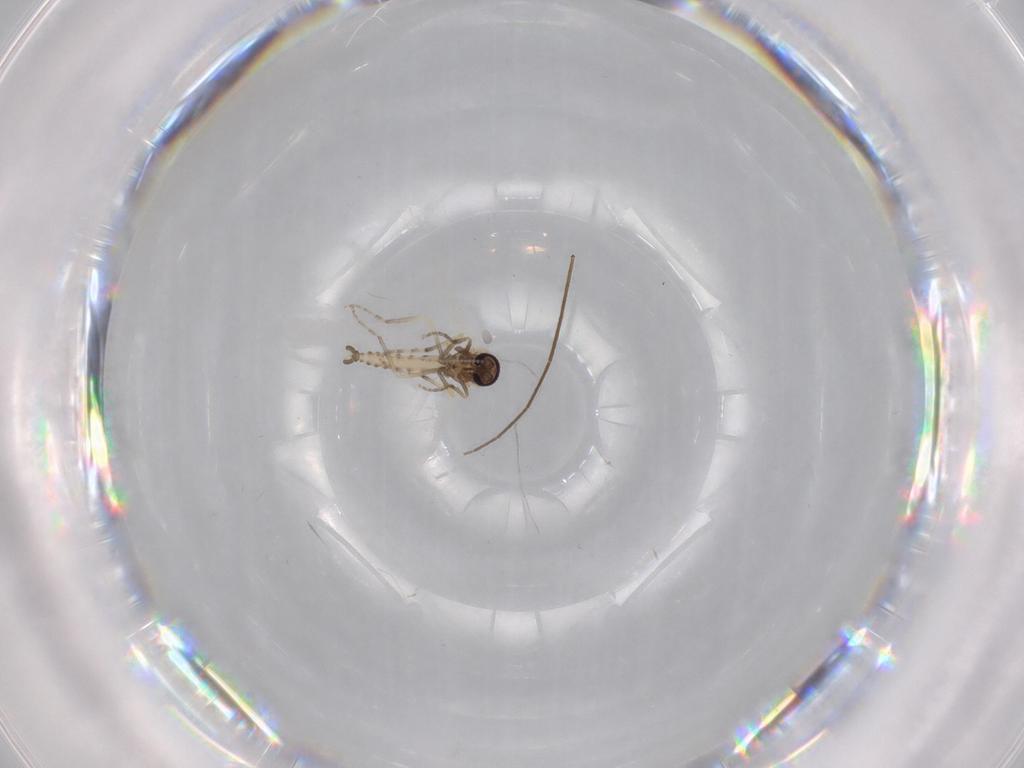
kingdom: Animalia
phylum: Arthropoda
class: Insecta
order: Diptera
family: Ceratopogonidae
